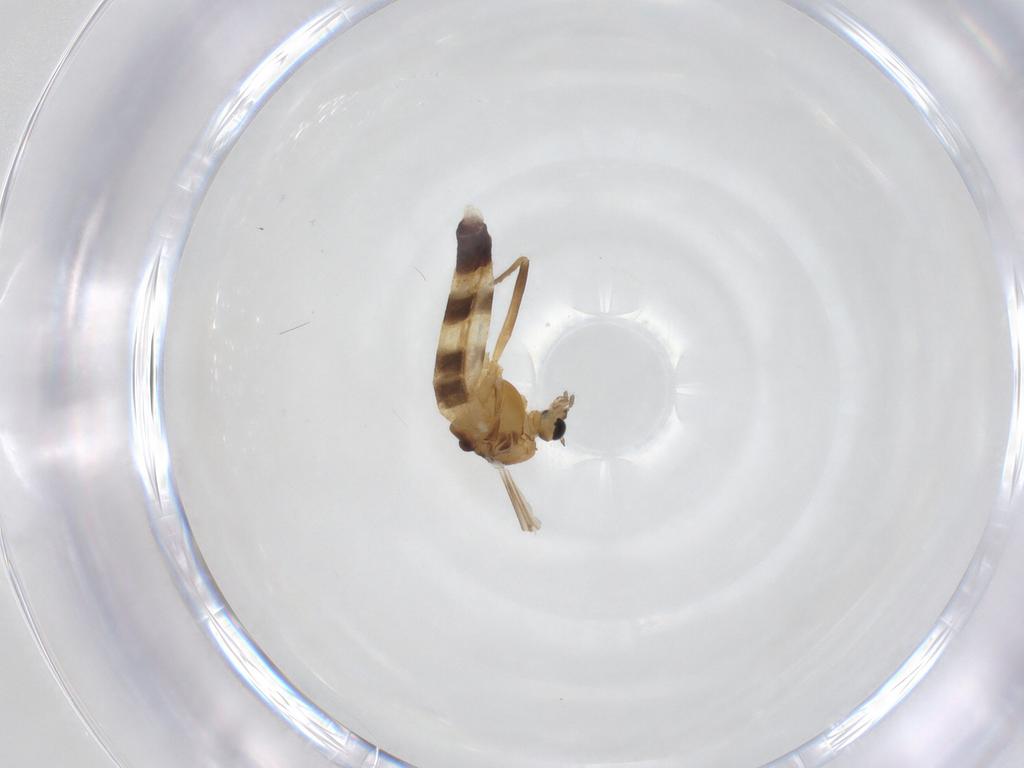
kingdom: Animalia
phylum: Arthropoda
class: Insecta
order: Diptera
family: Chironomidae
